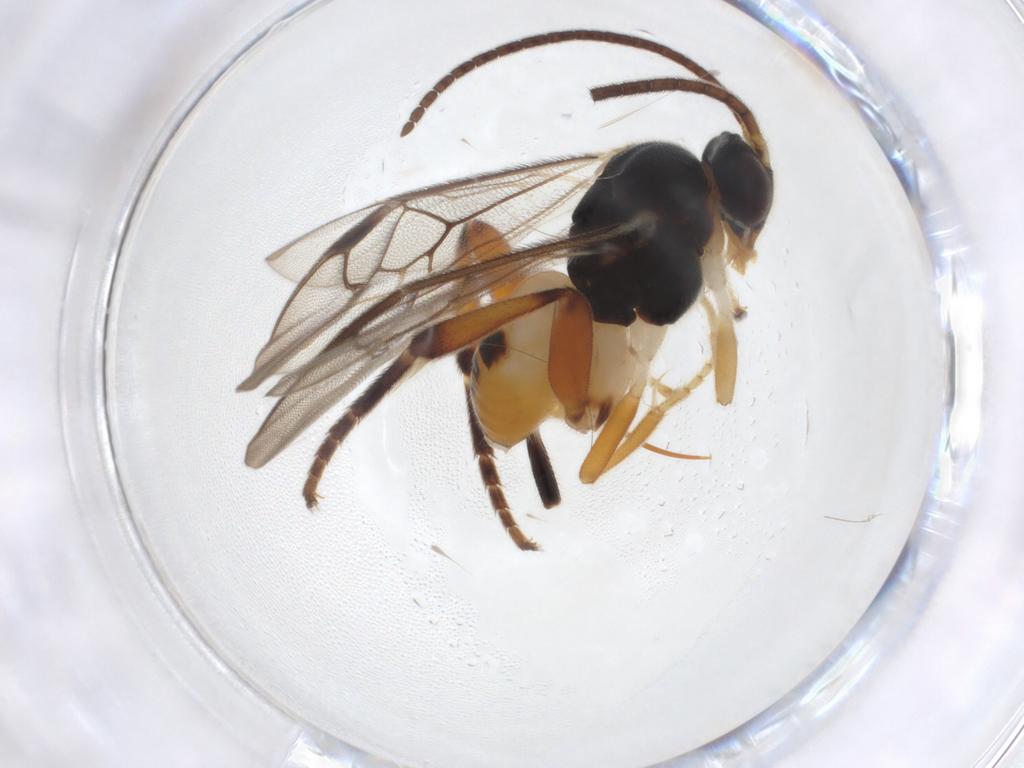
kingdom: Animalia
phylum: Arthropoda
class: Insecta
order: Hymenoptera
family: Braconidae
